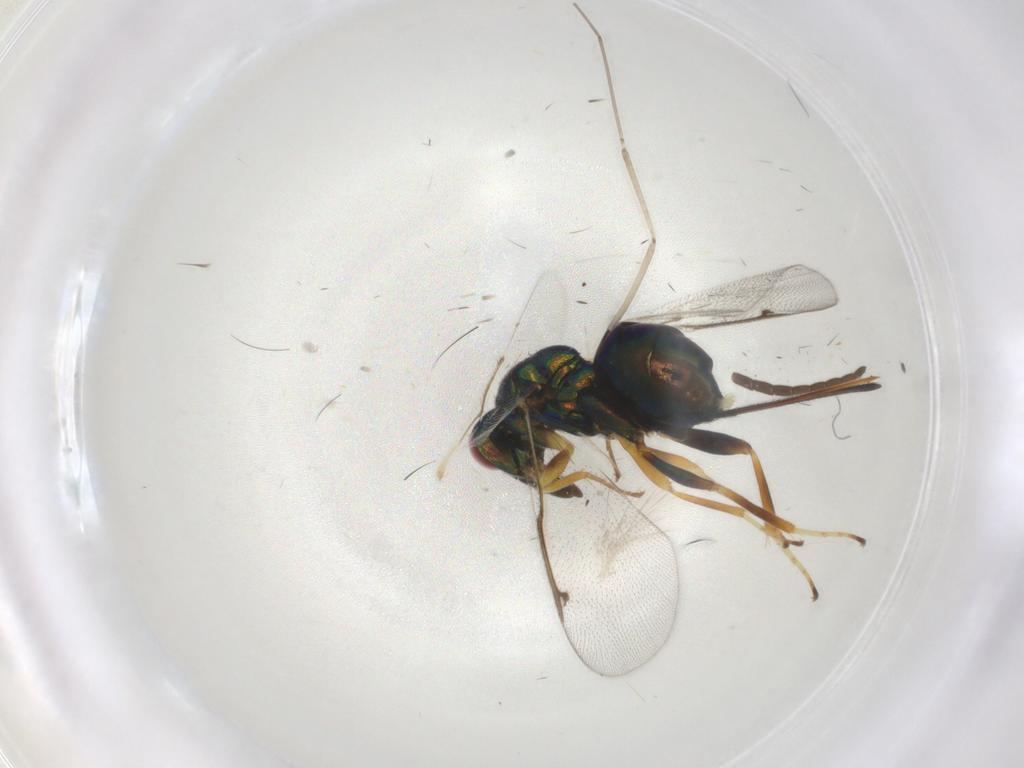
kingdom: Animalia
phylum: Arthropoda
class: Insecta
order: Hymenoptera
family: Torymidae
